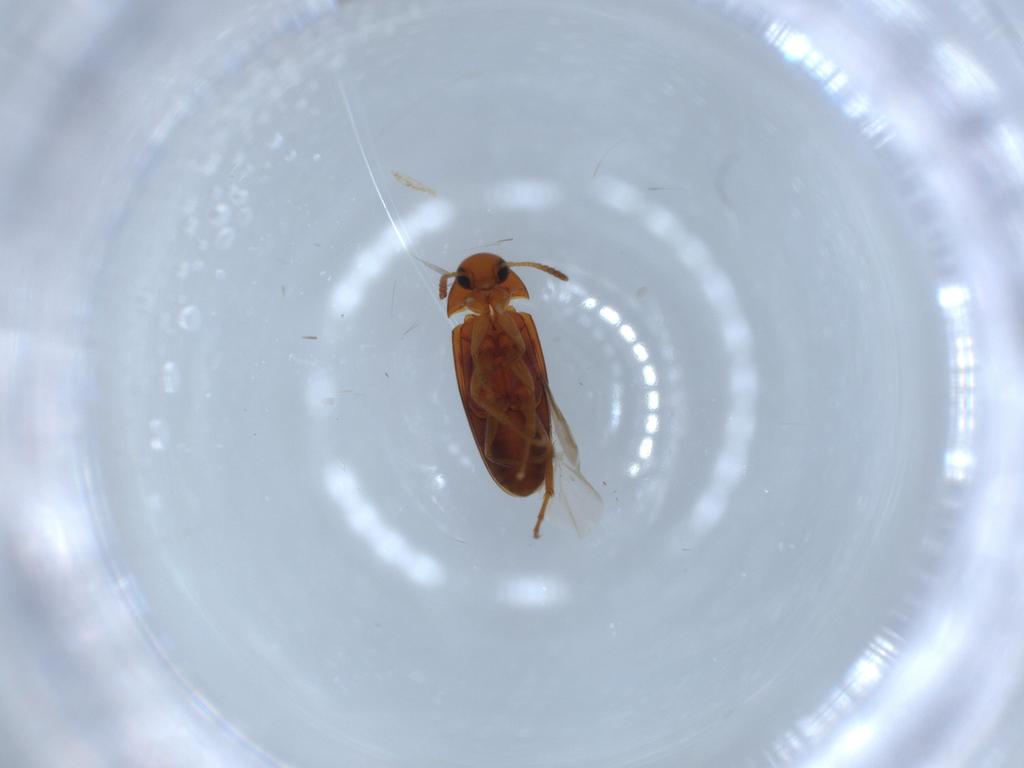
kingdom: Animalia
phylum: Arthropoda
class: Insecta
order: Coleoptera
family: Scraptiidae
